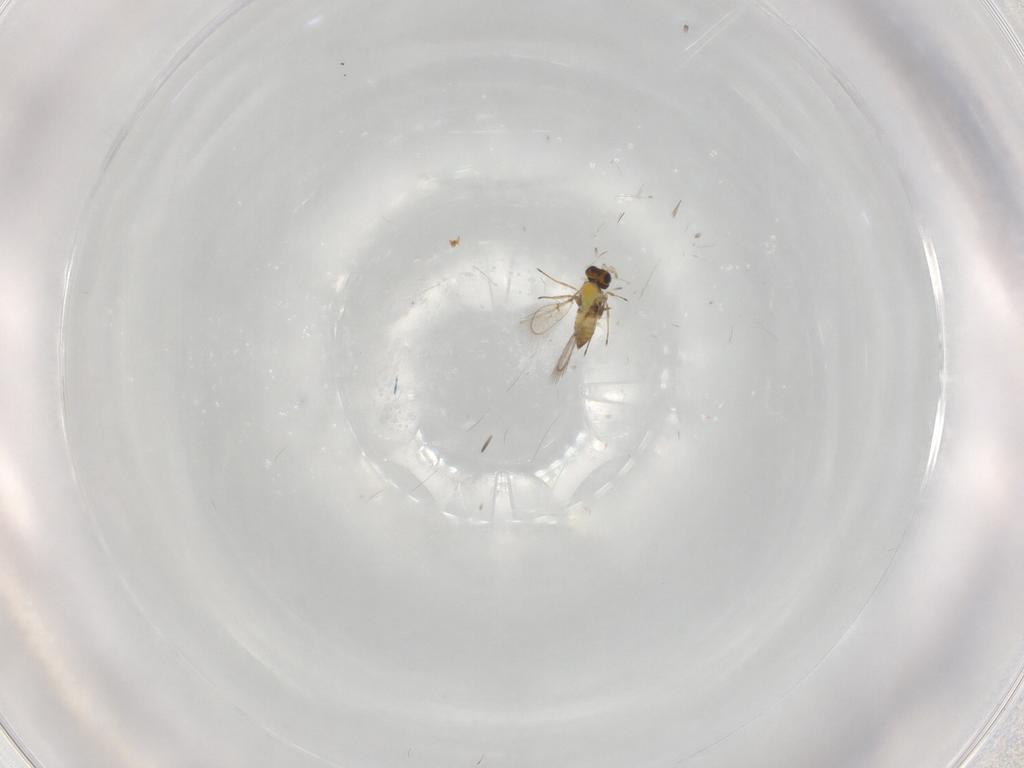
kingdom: Animalia
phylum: Arthropoda
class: Insecta
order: Hymenoptera
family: Trichogrammatidae
